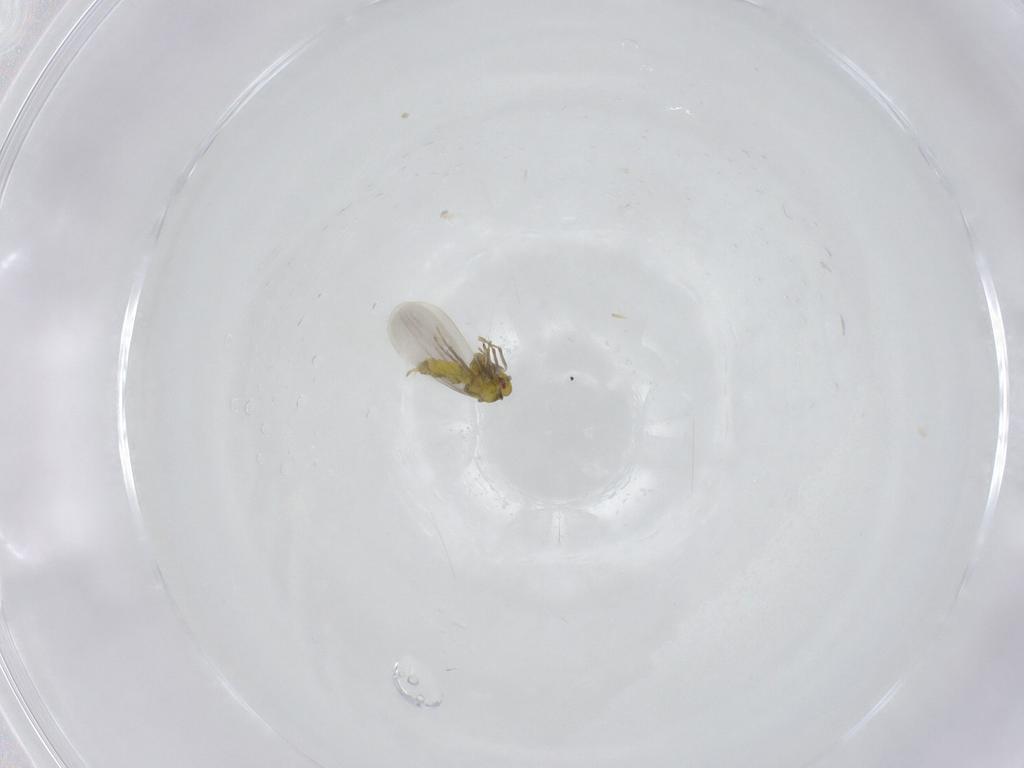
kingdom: Animalia
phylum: Arthropoda
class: Insecta
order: Hemiptera
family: Aleyrodidae
